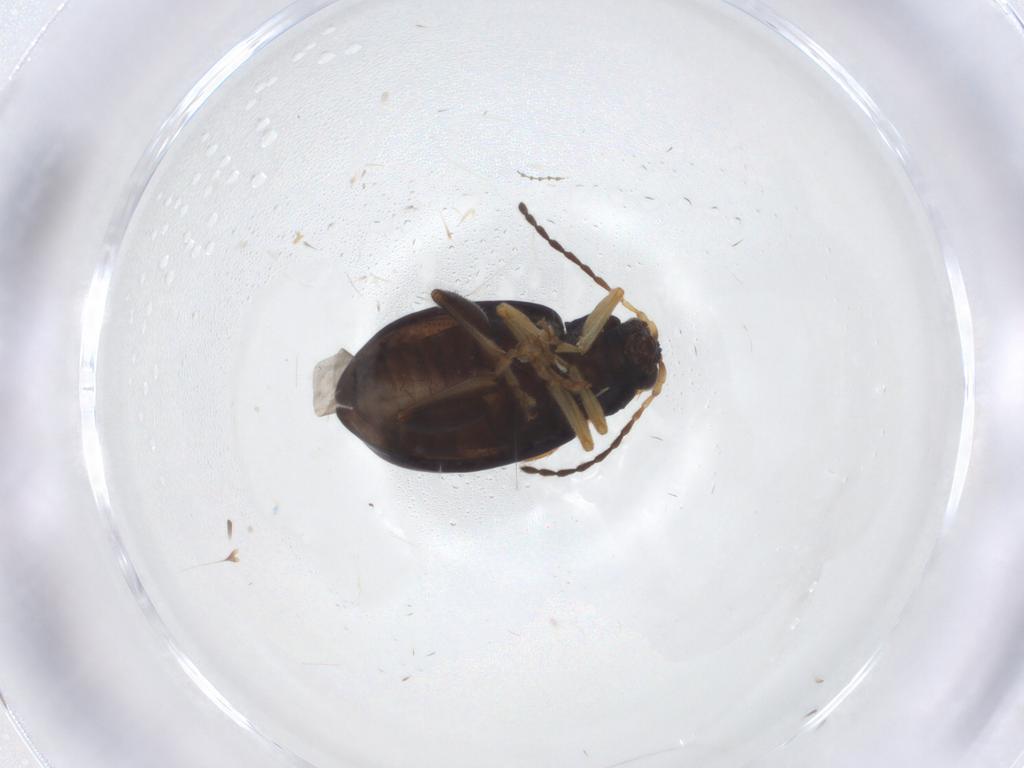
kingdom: Animalia
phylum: Arthropoda
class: Insecta
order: Coleoptera
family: Chrysomelidae
